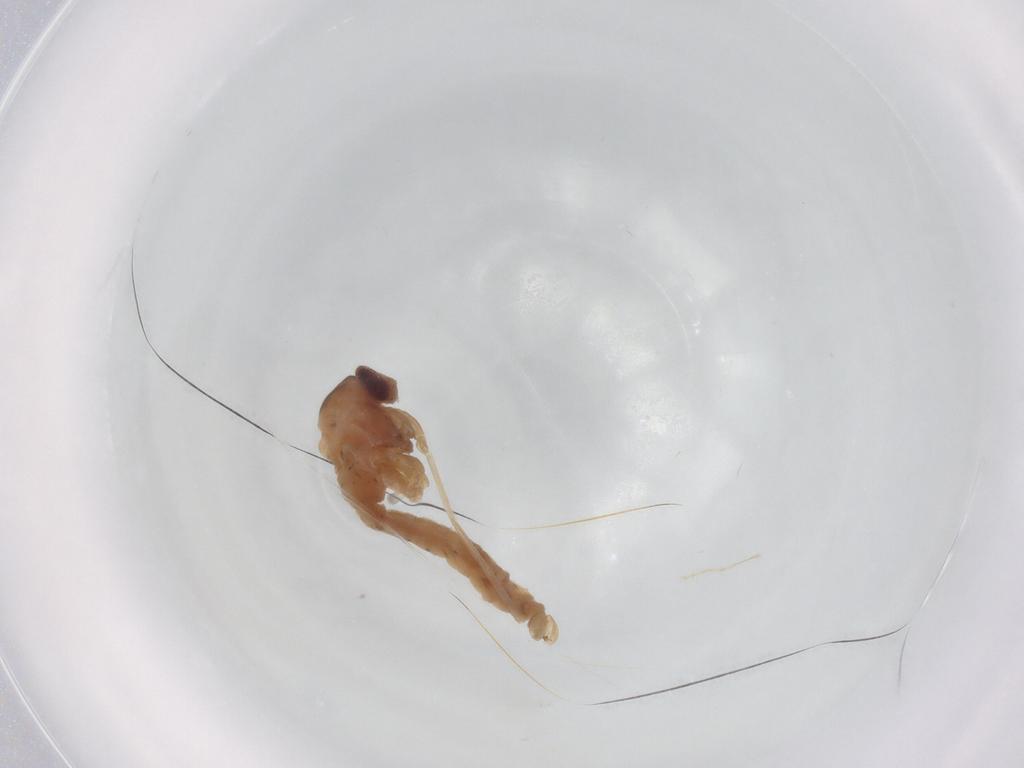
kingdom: Animalia
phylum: Arthropoda
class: Insecta
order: Diptera
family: Cecidomyiidae
